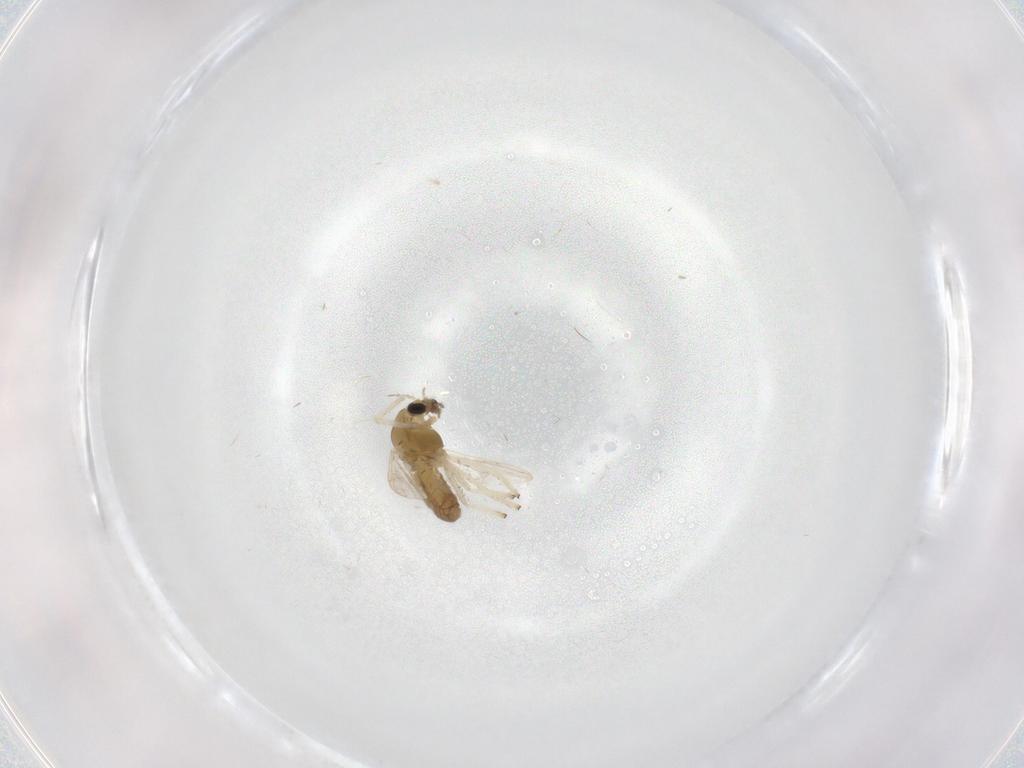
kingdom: Animalia
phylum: Arthropoda
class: Insecta
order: Diptera
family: Chironomidae
